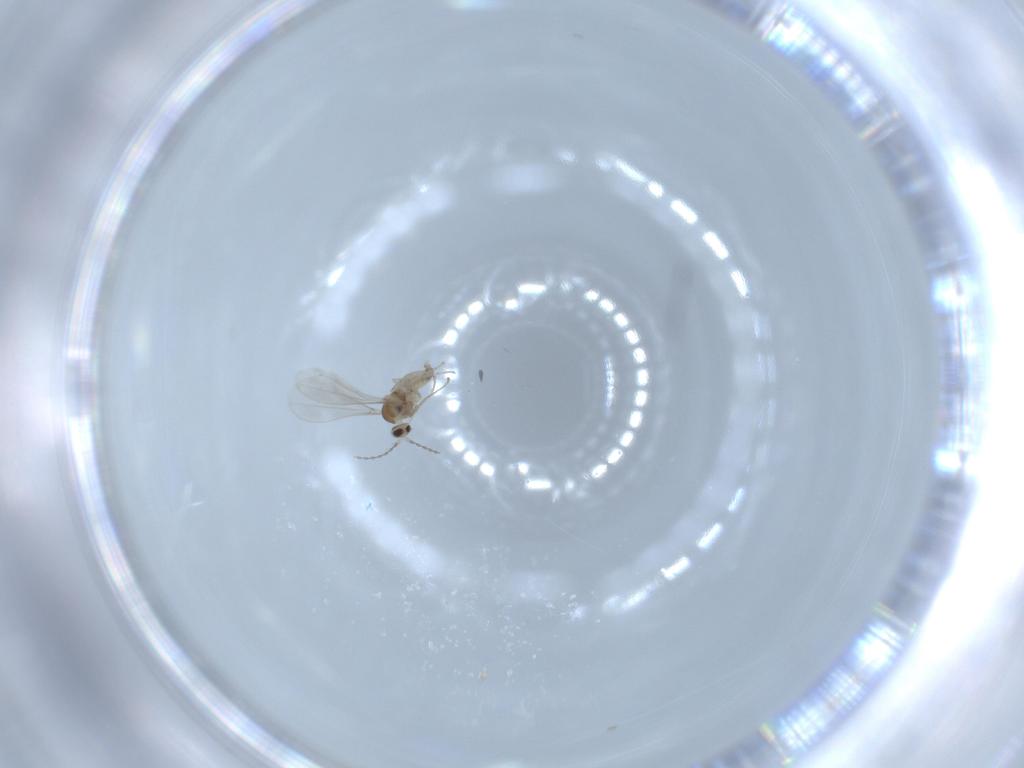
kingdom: Animalia
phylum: Arthropoda
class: Insecta
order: Diptera
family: Cecidomyiidae
